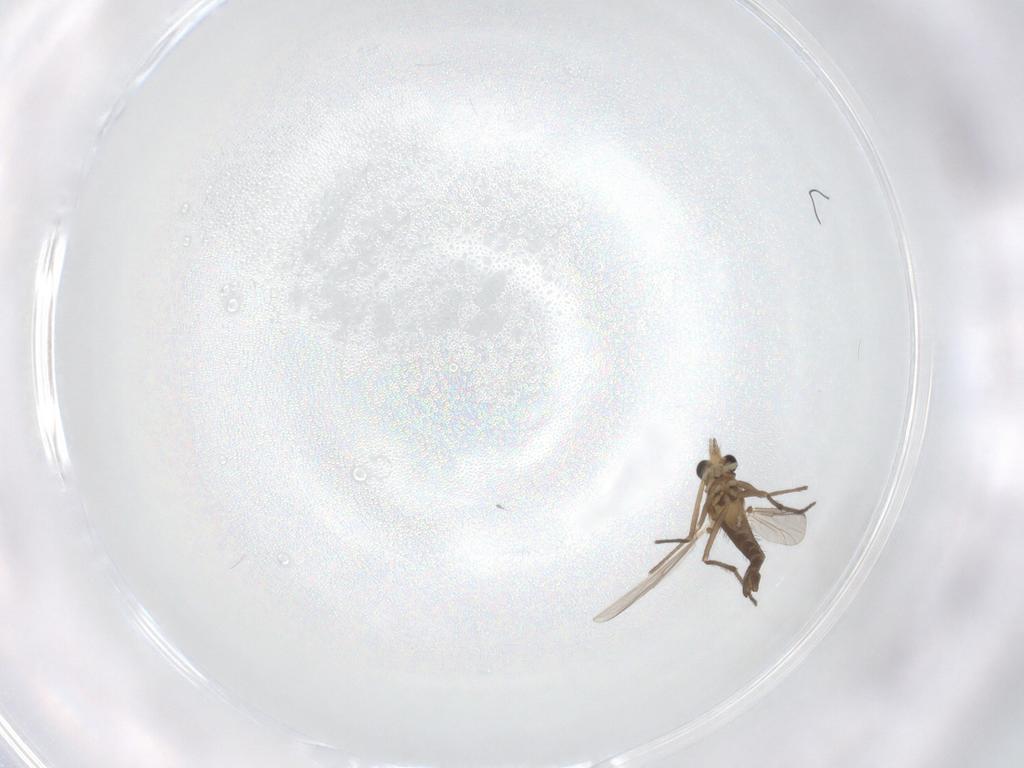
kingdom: Animalia
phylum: Arthropoda
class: Insecta
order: Diptera
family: Chironomidae
